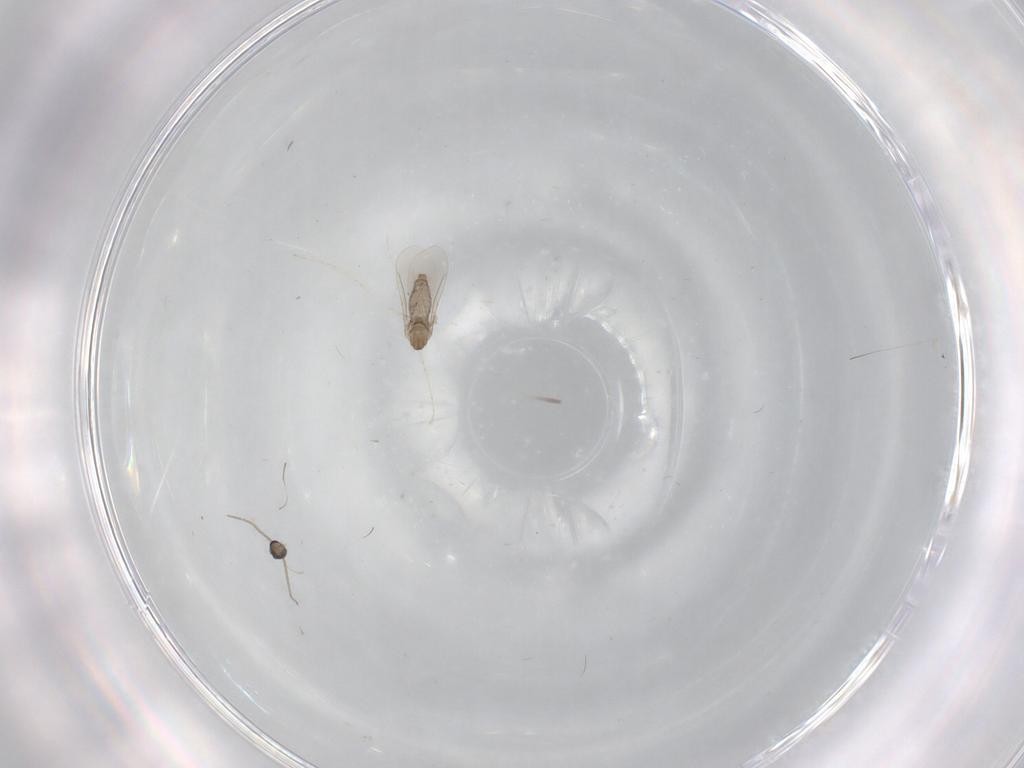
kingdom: Animalia
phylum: Arthropoda
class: Insecta
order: Diptera
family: Cecidomyiidae
